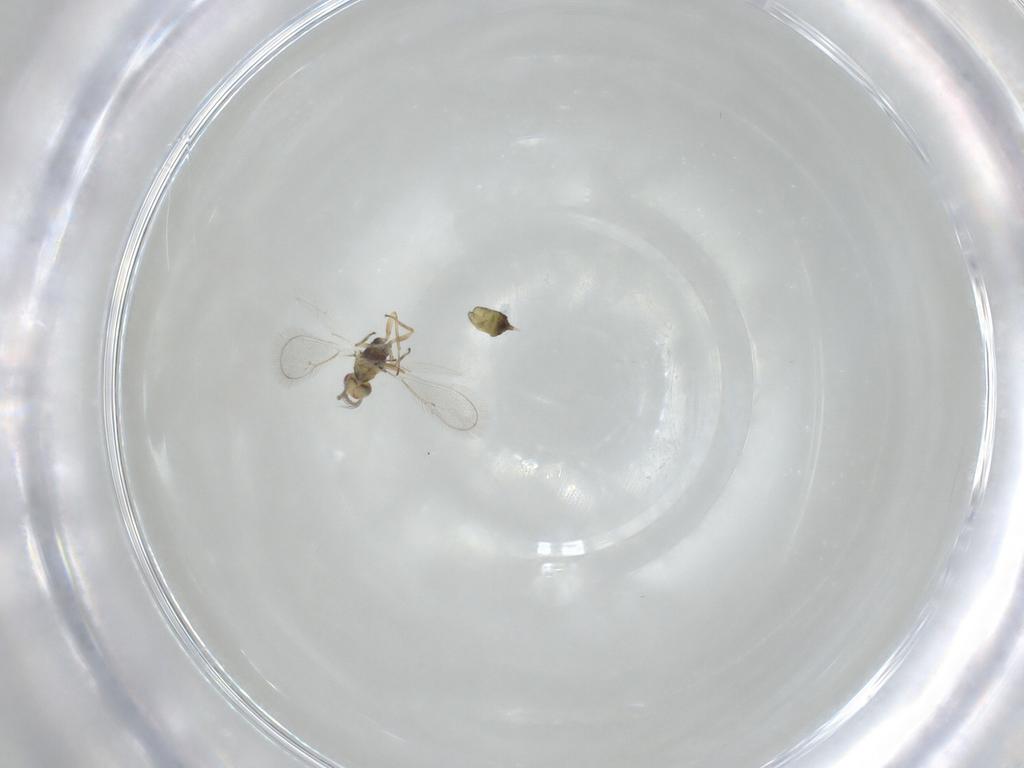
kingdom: Animalia
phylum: Arthropoda
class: Insecta
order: Hymenoptera
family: Eulophidae
